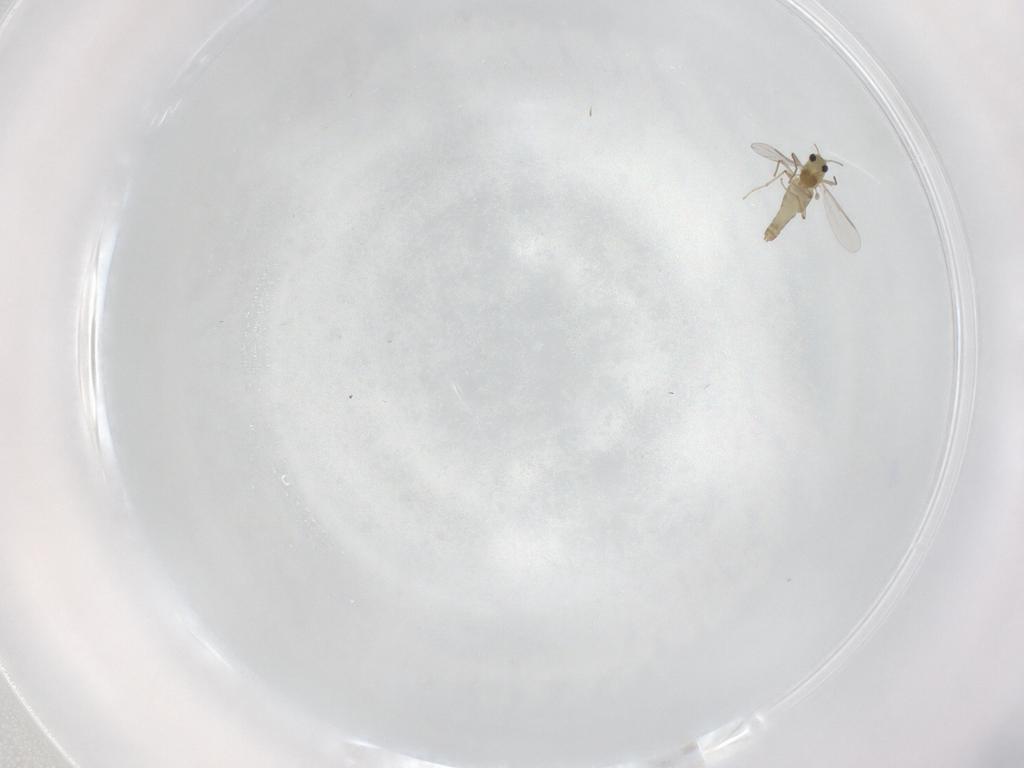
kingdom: Animalia
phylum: Arthropoda
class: Insecta
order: Diptera
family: Chironomidae
